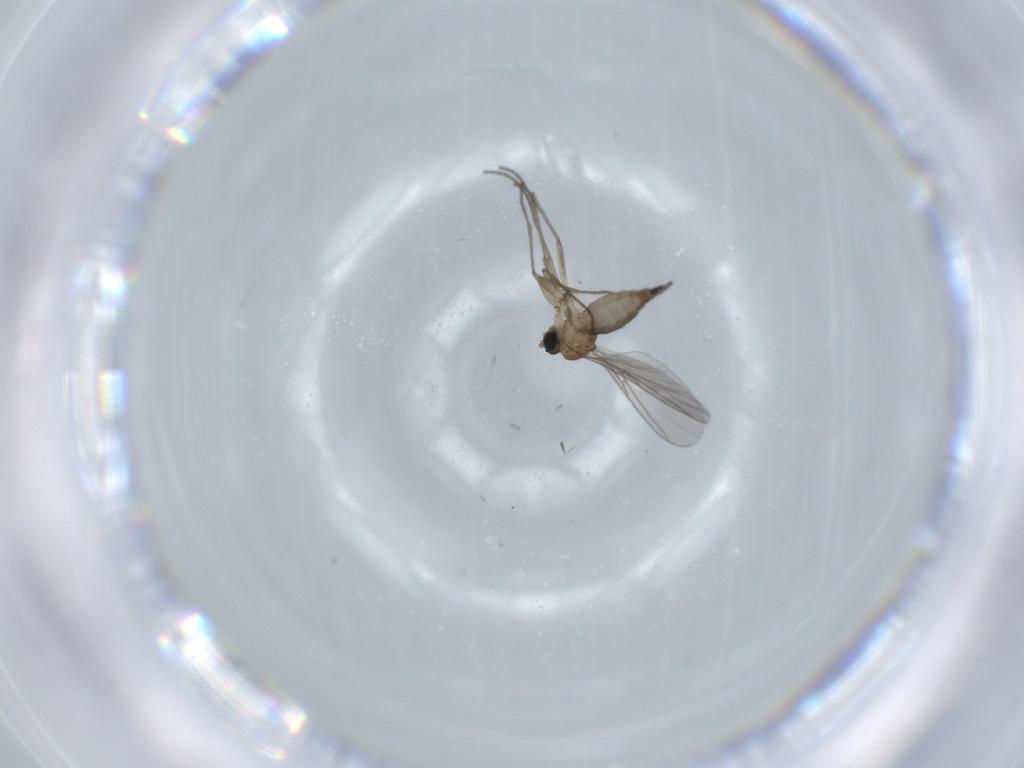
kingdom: Animalia
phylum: Arthropoda
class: Insecta
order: Diptera
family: Sciaridae
